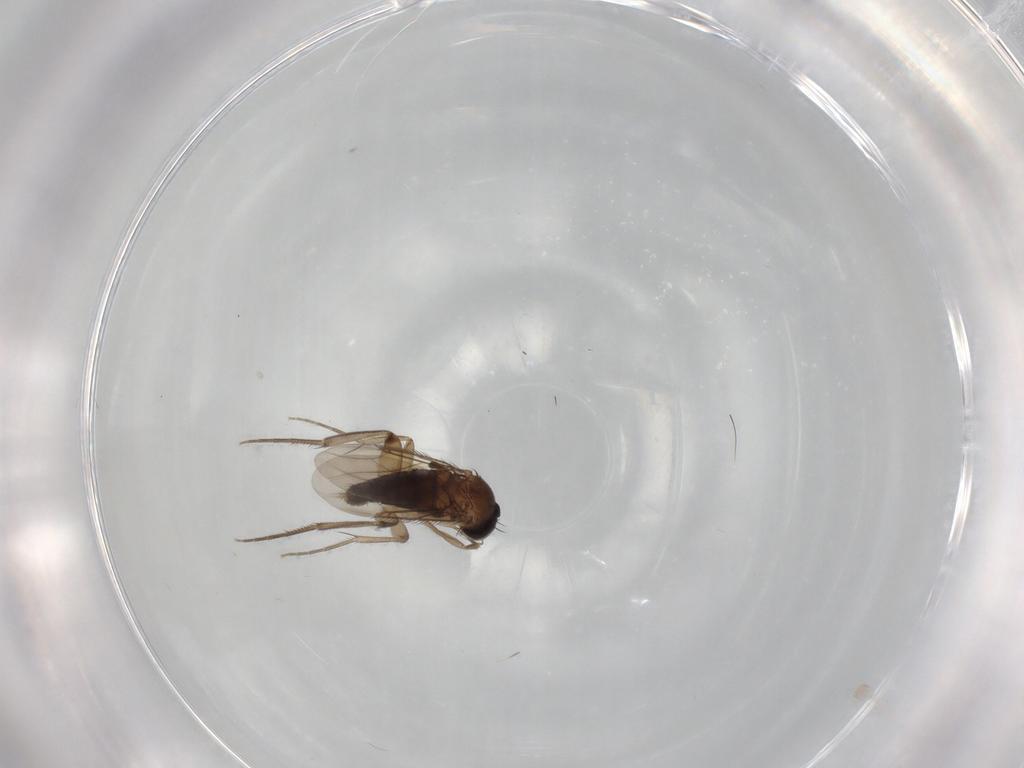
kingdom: Animalia
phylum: Arthropoda
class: Insecta
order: Diptera
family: Phoridae
